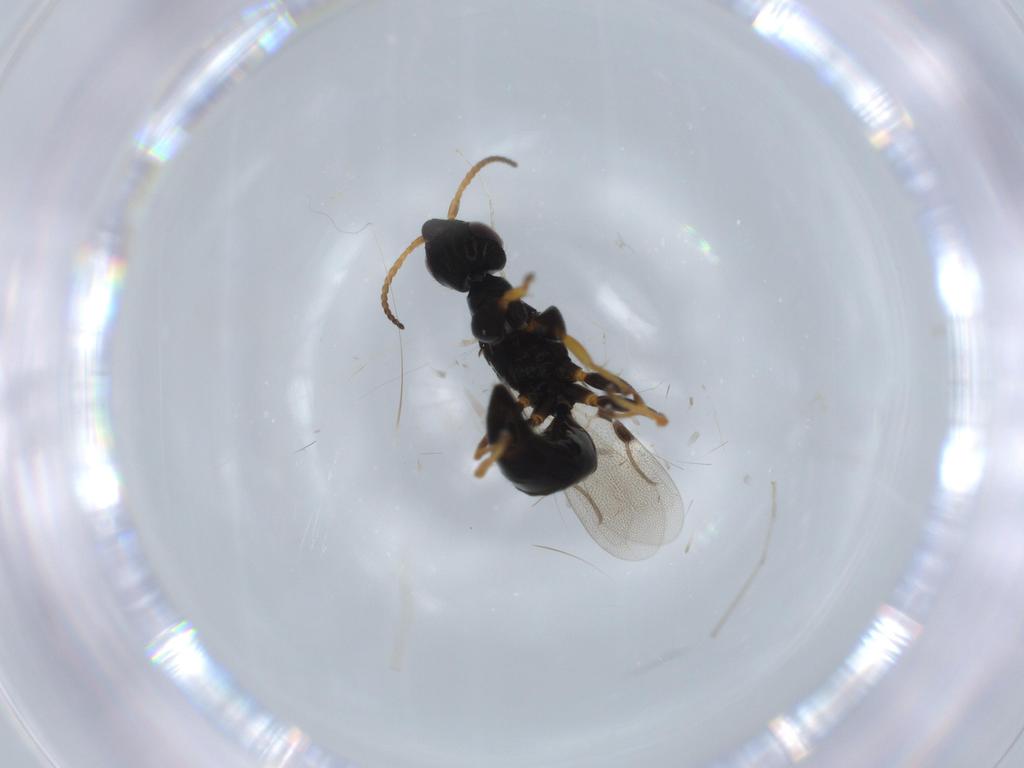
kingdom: Animalia
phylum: Arthropoda
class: Insecta
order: Hymenoptera
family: Bethylidae
